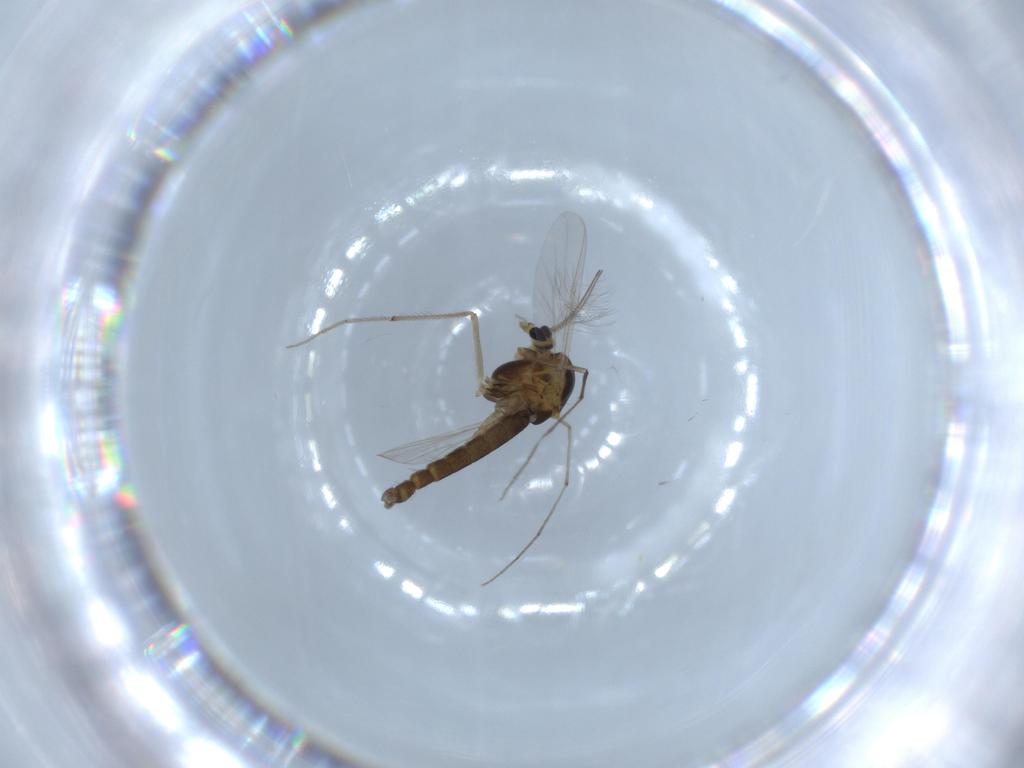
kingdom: Animalia
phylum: Arthropoda
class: Insecta
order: Diptera
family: Chironomidae
